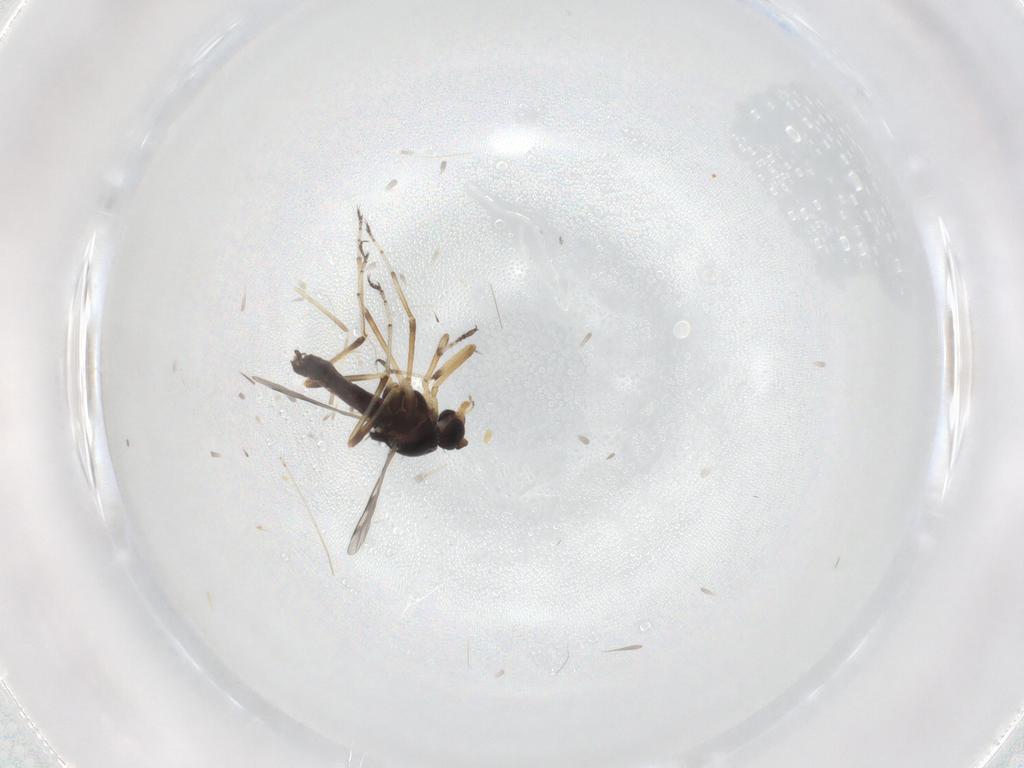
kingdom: Animalia
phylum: Arthropoda
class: Insecta
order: Diptera
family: Ceratopogonidae
